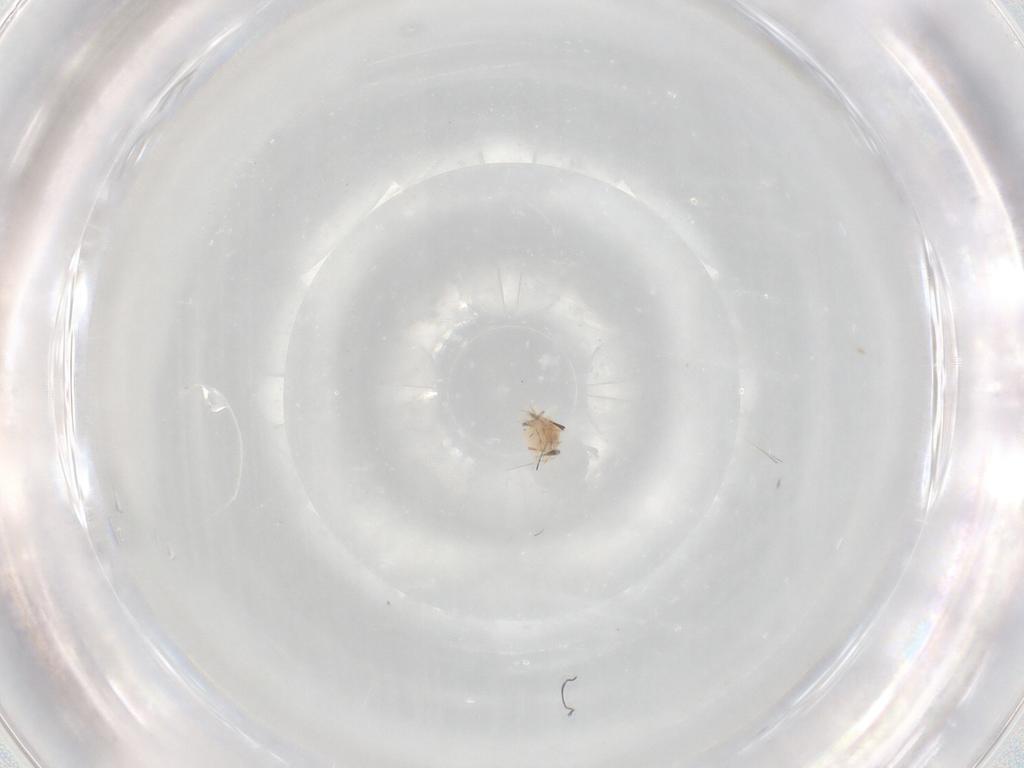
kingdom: Animalia
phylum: Arthropoda
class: Arachnida
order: Trombidiformes
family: Anystidae
